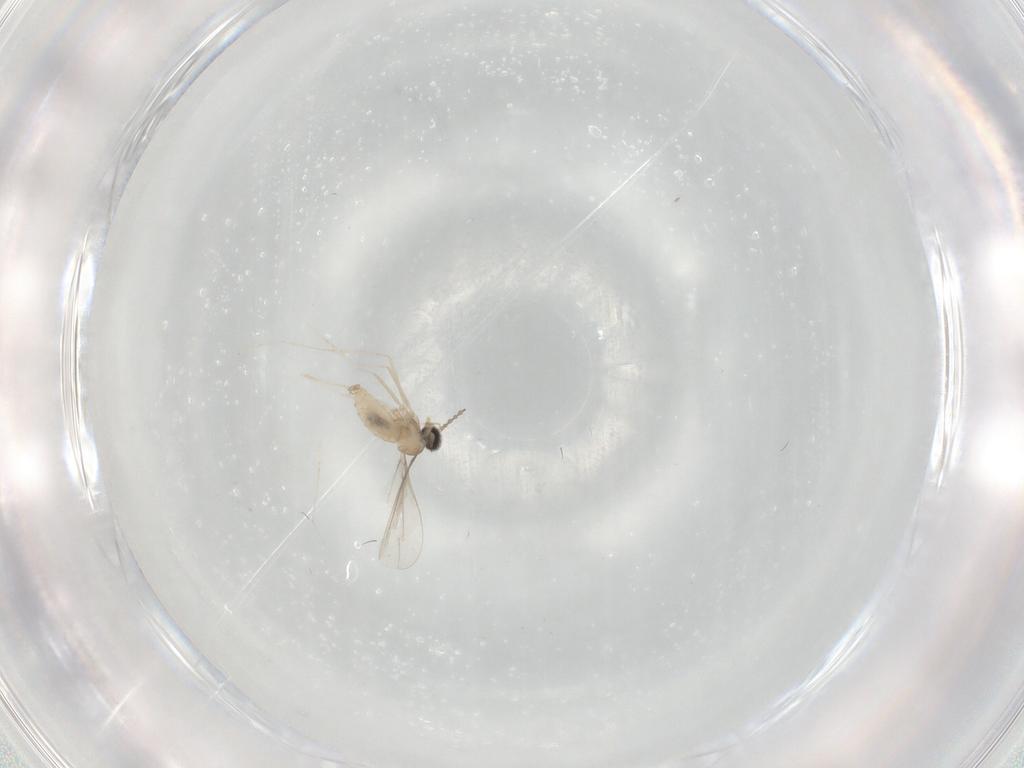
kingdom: Animalia
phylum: Arthropoda
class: Insecta
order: Diptera
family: Cecidomyiidae
